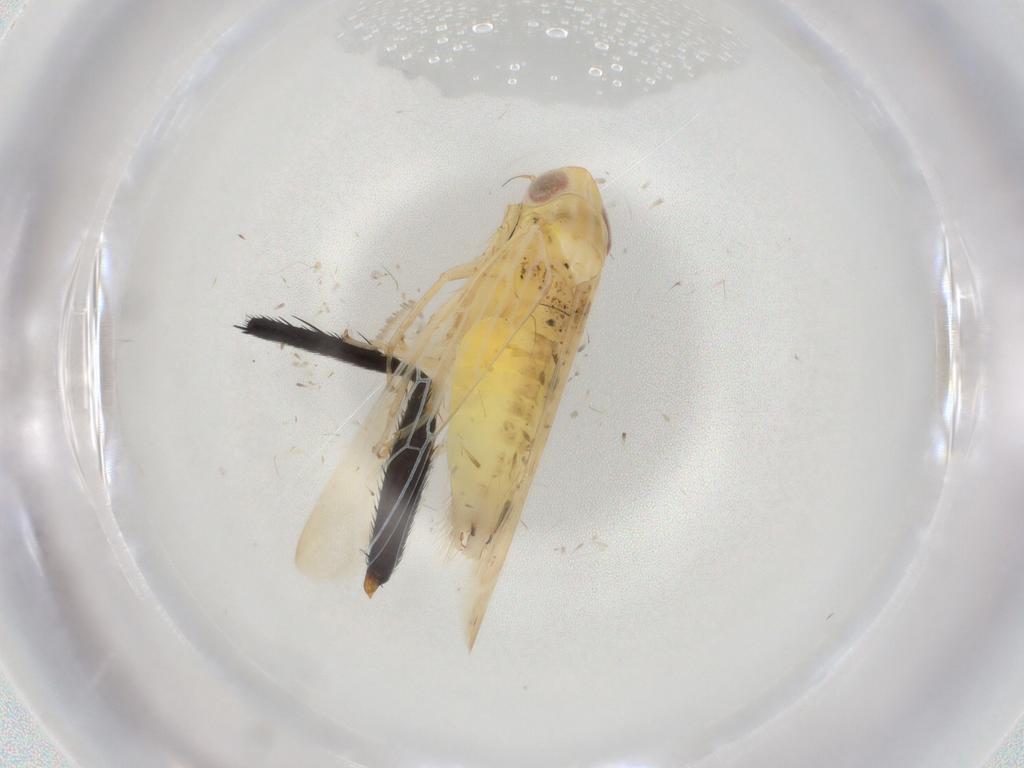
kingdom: Animalia
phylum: Arthropoda
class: Insecta
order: Hemiptera
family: Cicadellidae
